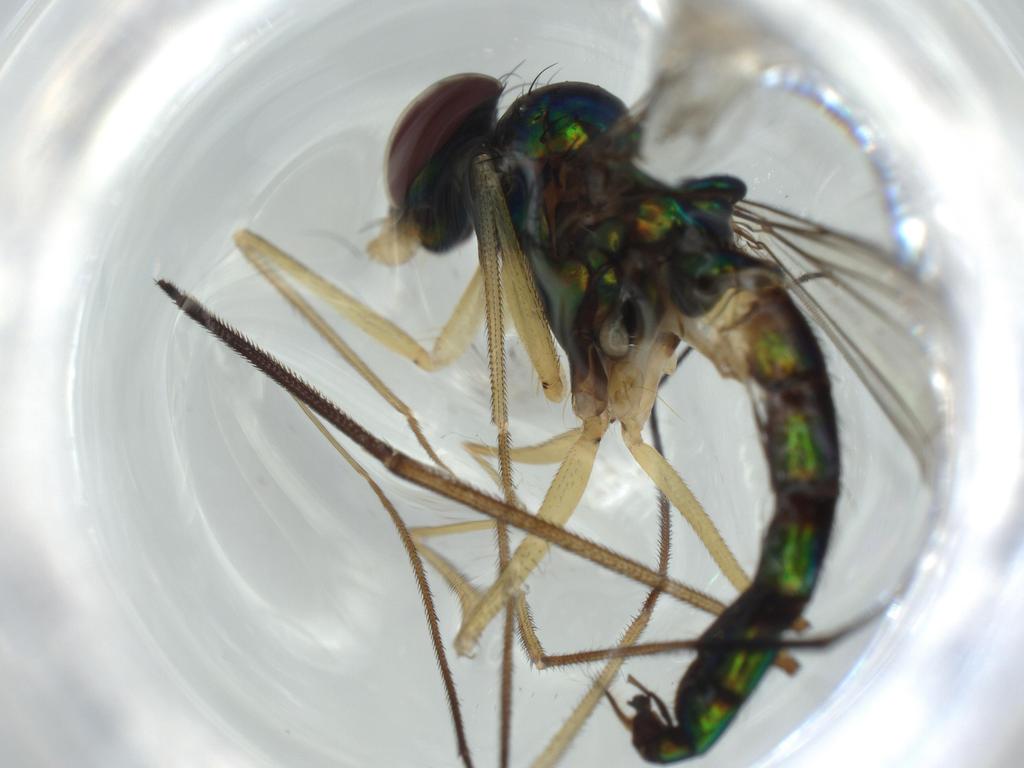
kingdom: Animalia
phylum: Arthropoda
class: Insecta
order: Diptera
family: Dolichopodidae
